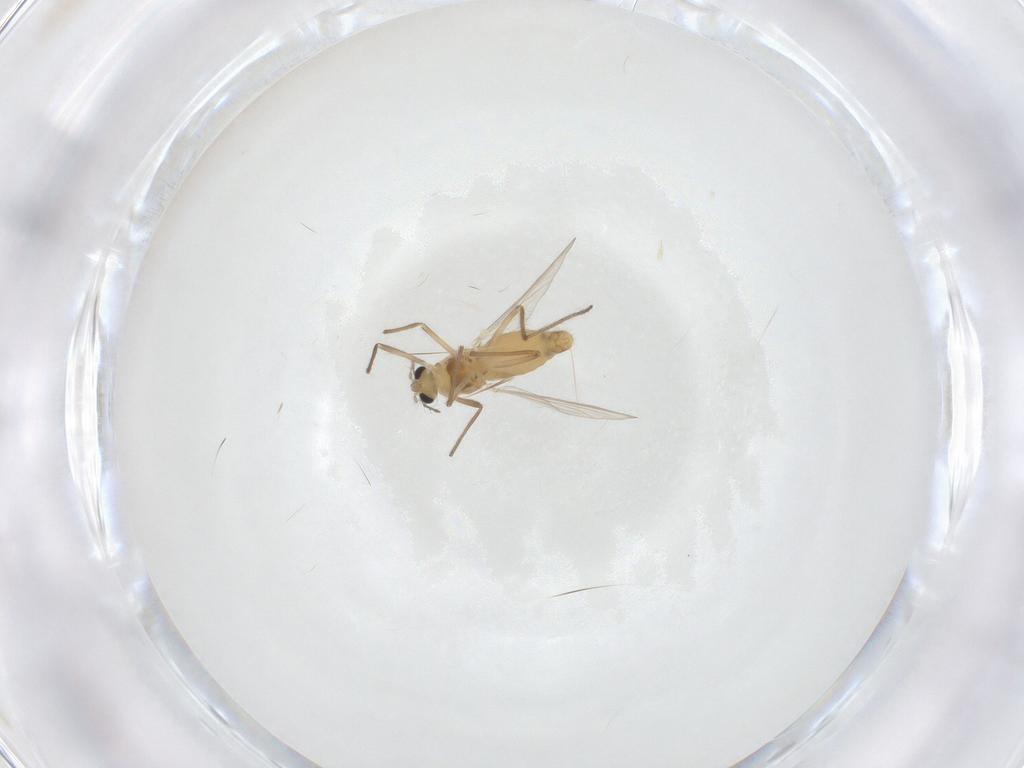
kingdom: Animalia
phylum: Arthropoda
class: Insecta
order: Diptera
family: Chironomidae
